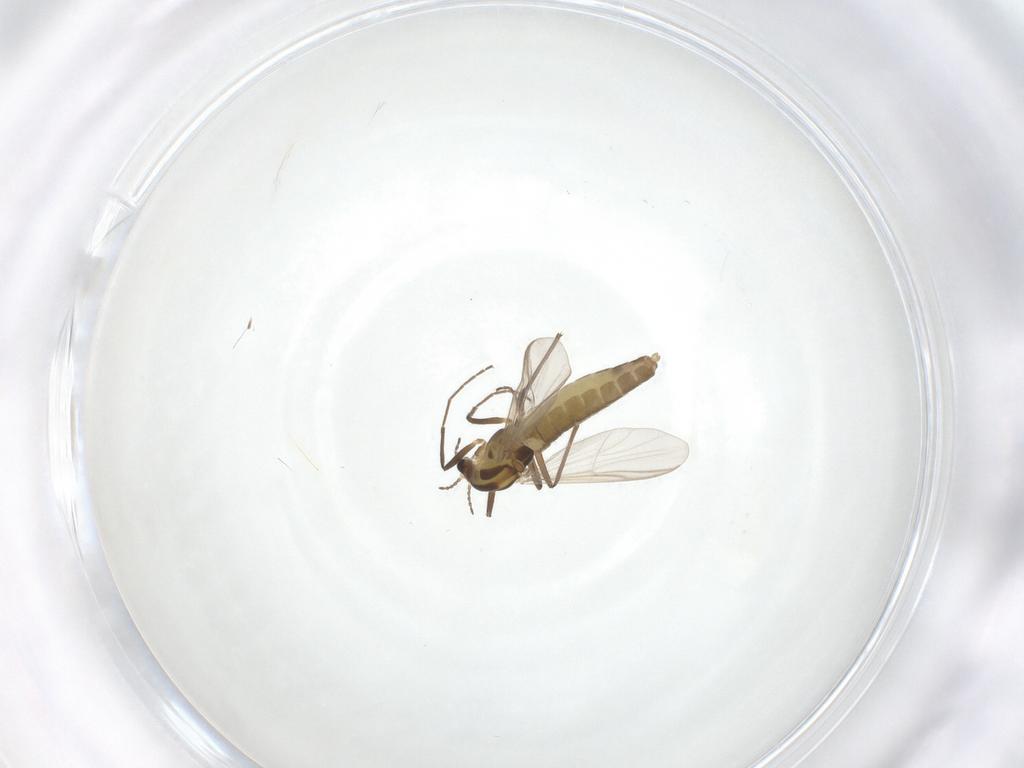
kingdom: Animalia
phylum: Arthropoda
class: Insecta
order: Diptera
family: Chironomidae
